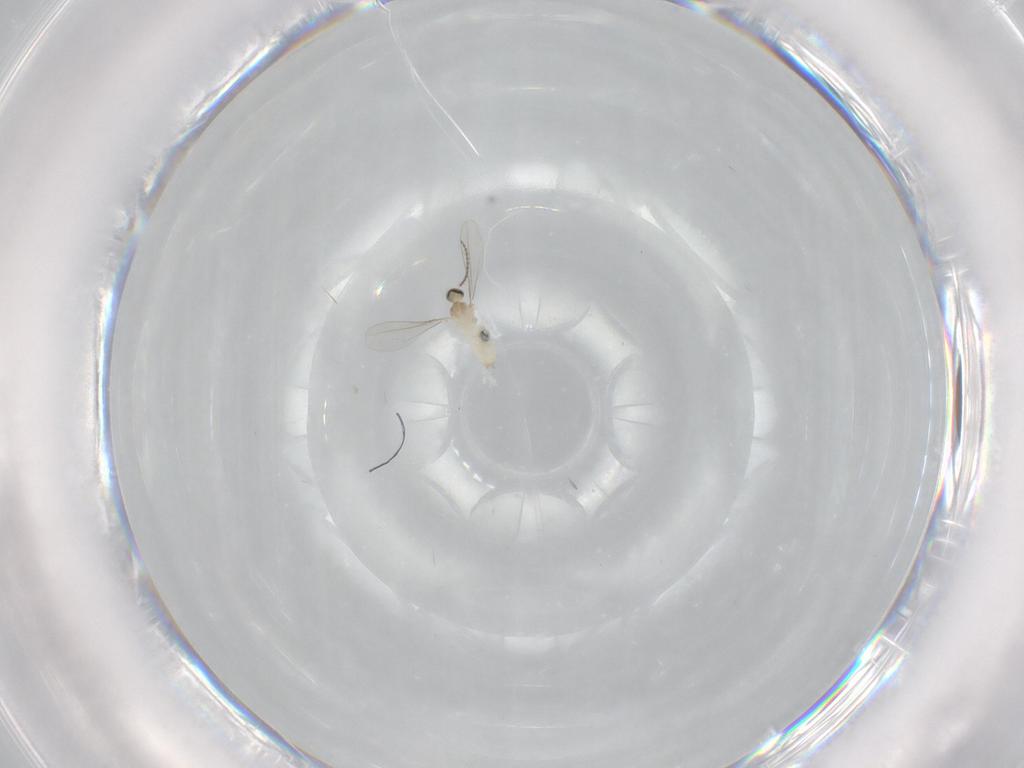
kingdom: Animalia
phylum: Arthropoda
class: Insecta
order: Diptera
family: Cecidomyiidae
